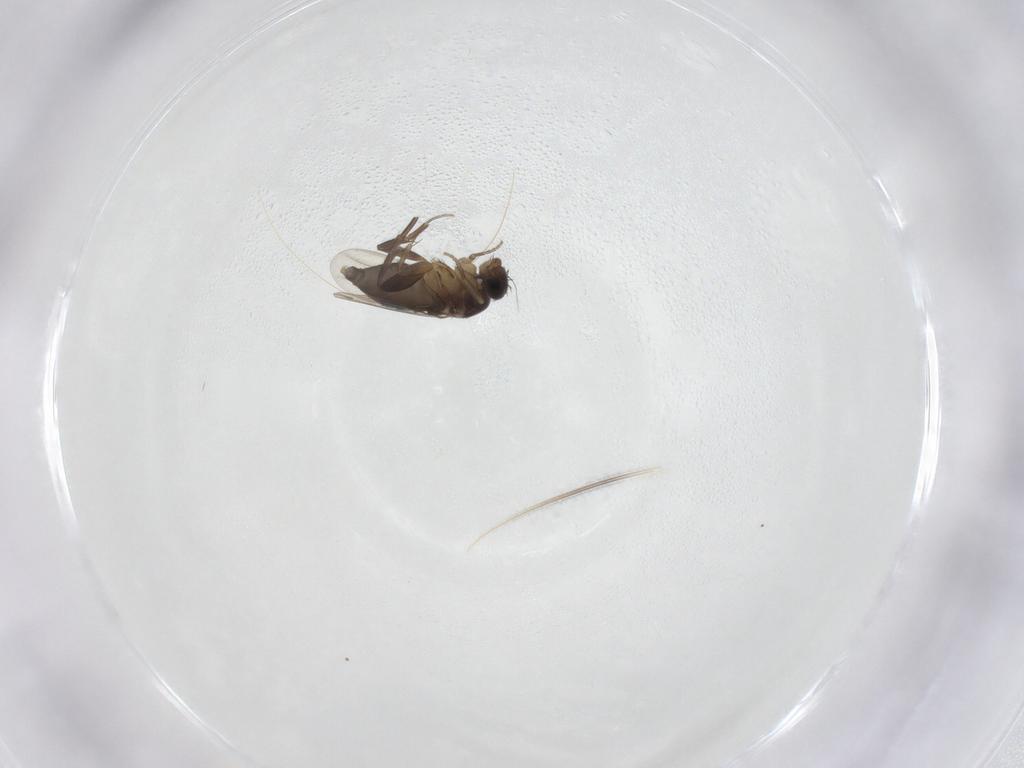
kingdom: Animalia
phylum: Arthropoda
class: Insecta
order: Diptera
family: Phoridae
